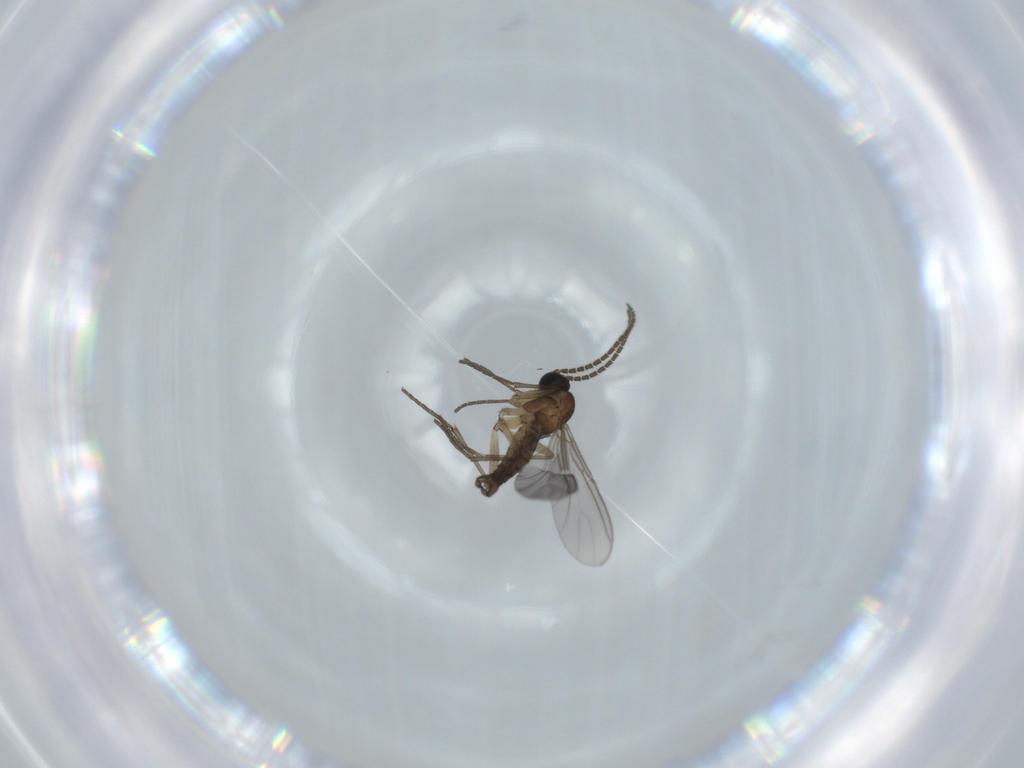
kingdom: Animalia
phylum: Arthropoda
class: Insecta
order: Diptera
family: Sciaridae
